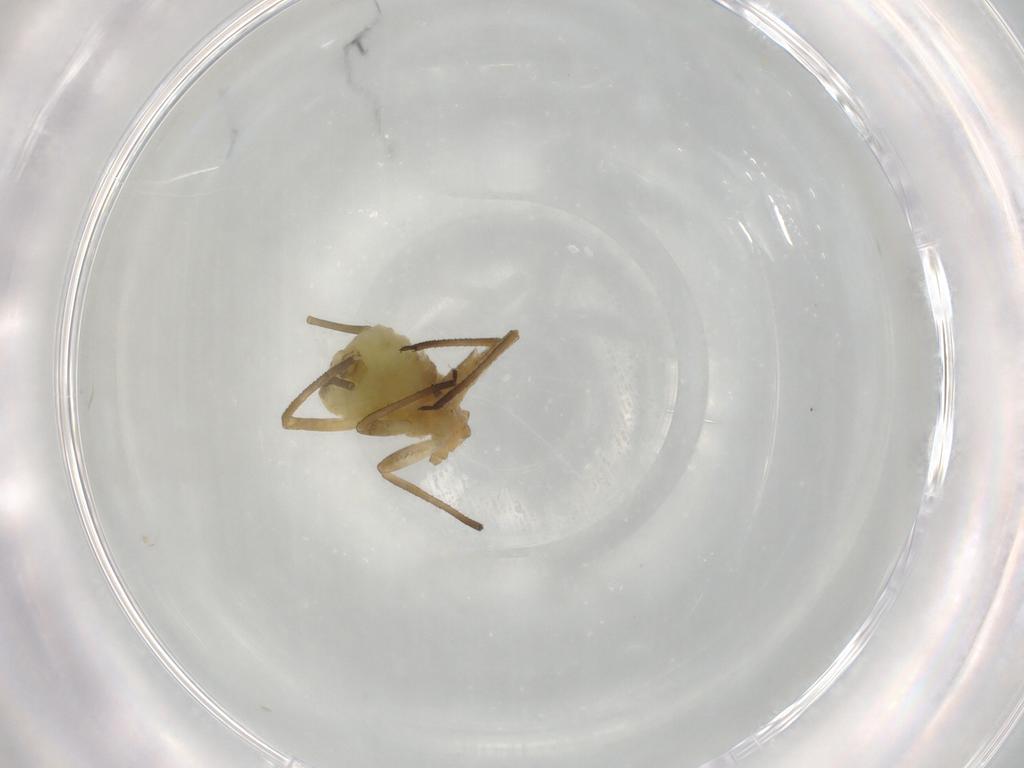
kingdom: Animalia
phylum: Arthropoda
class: Insecta
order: Hemiptera
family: Aphididae
